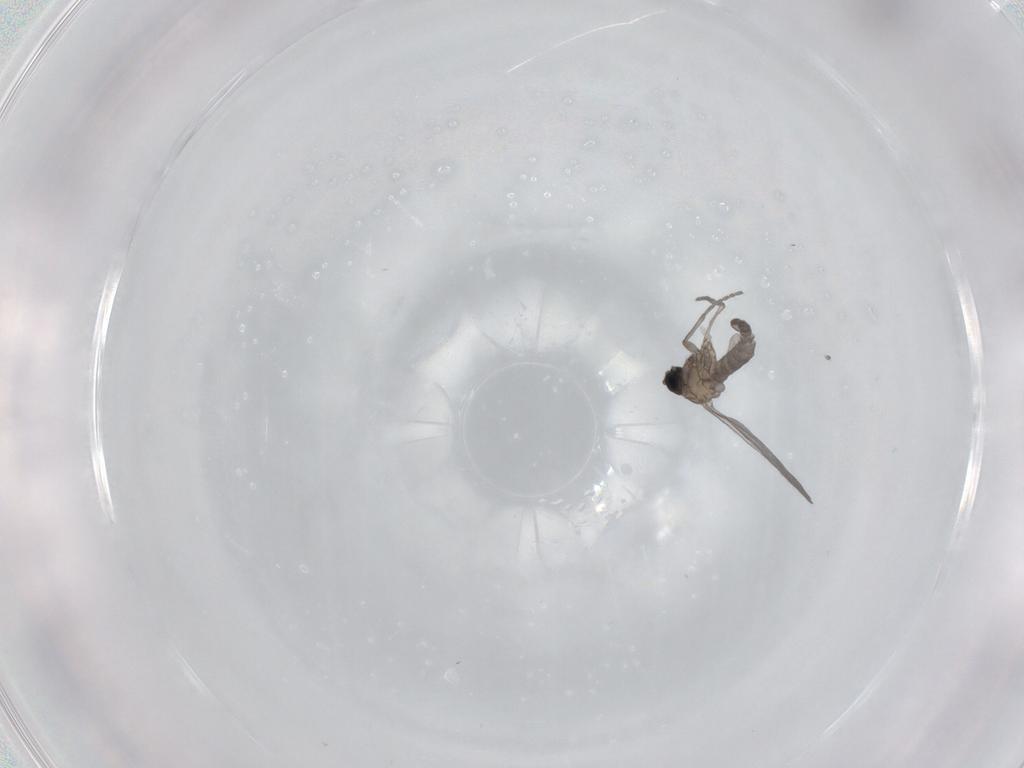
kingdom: Animalia
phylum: Arthropoda
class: Insecta
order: Diptera
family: Sciaridae
